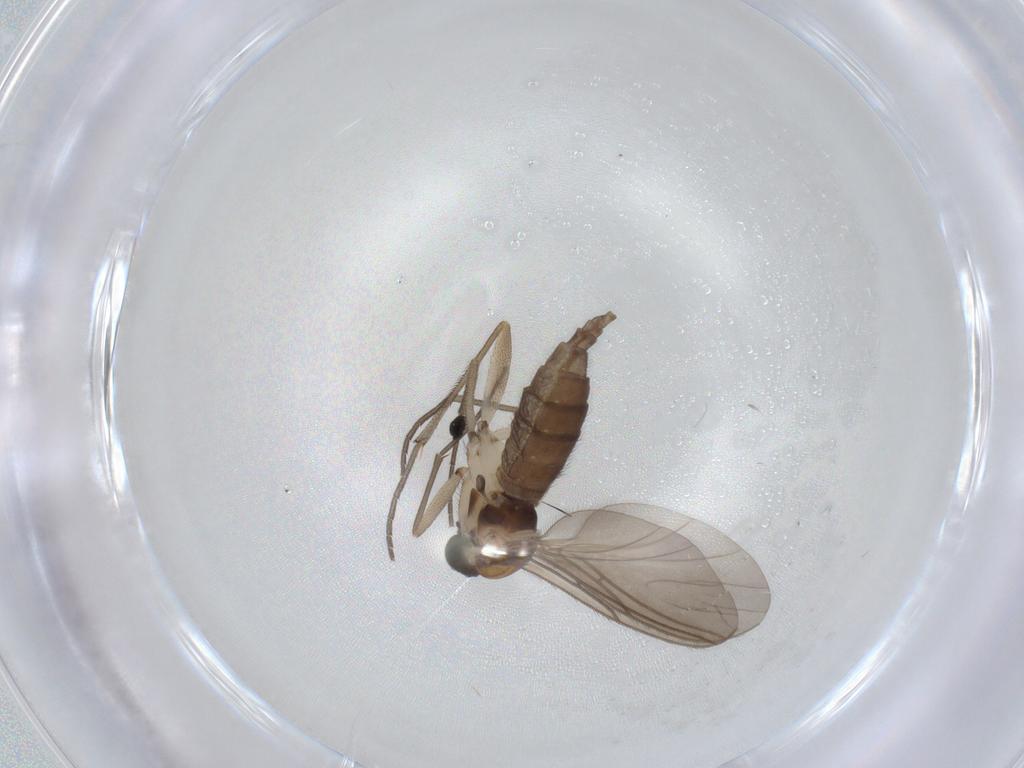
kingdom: Animalia
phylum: Arthropoda
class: Insecta
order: Diptera
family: Sciaridae
